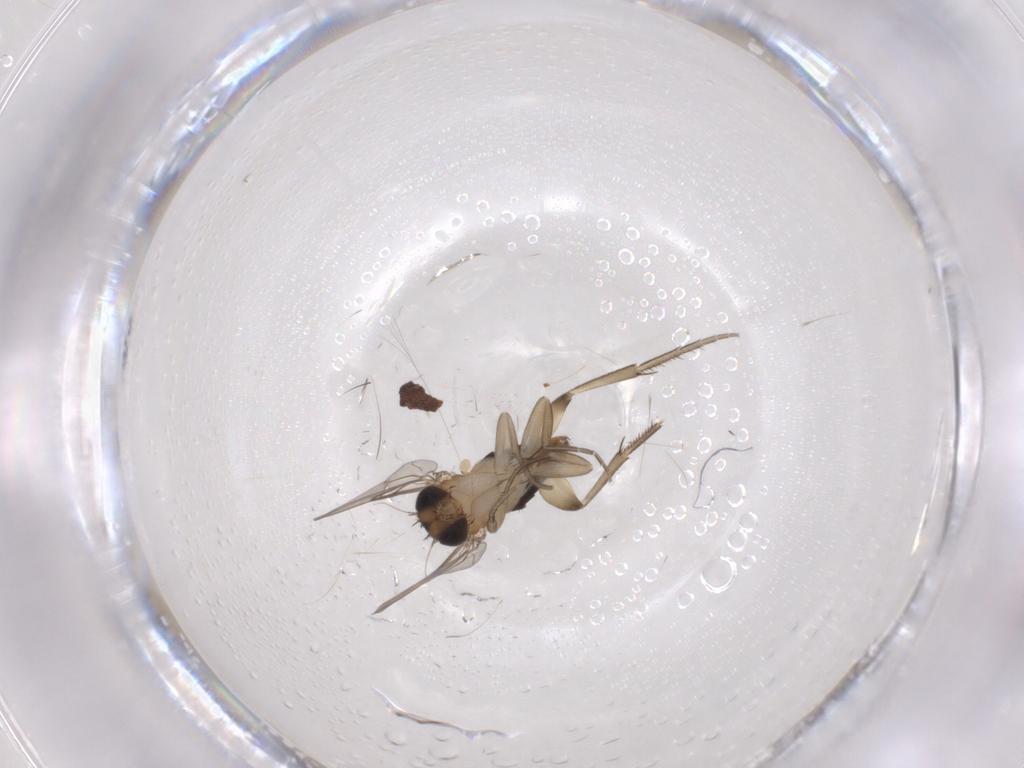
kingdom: Animalia
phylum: Arthropoda
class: Insecta
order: Diptera
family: Phoridae
